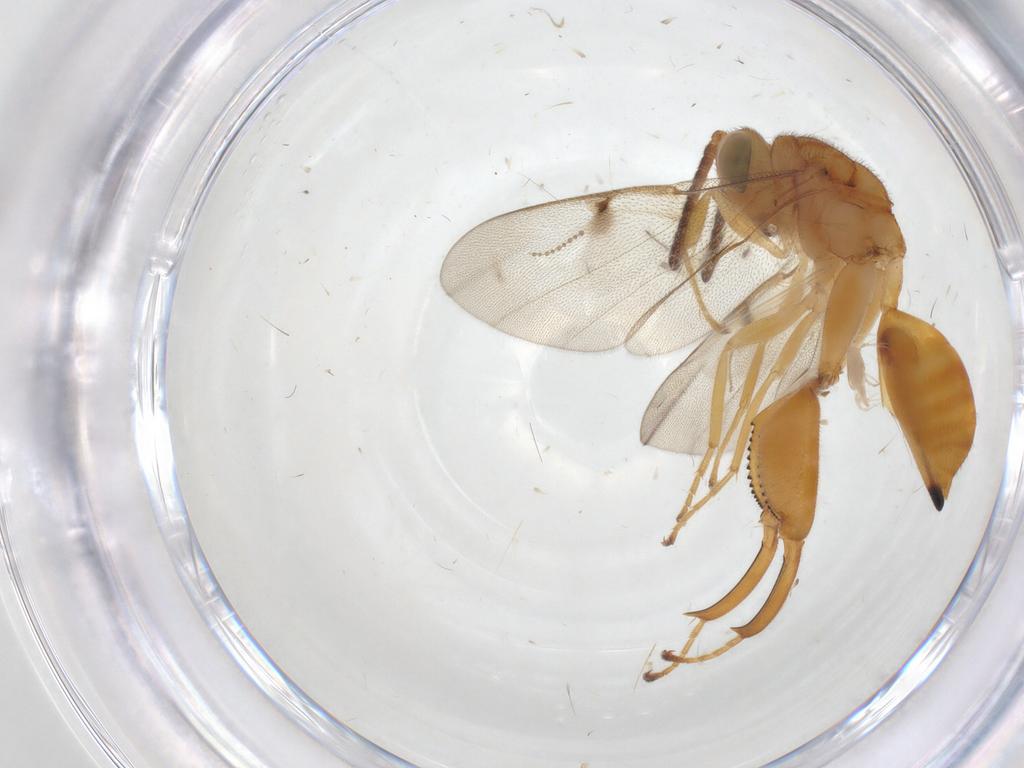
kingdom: Animalia
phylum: Arthropoda
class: Insecta
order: Hymenoptera
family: Chalcididae
